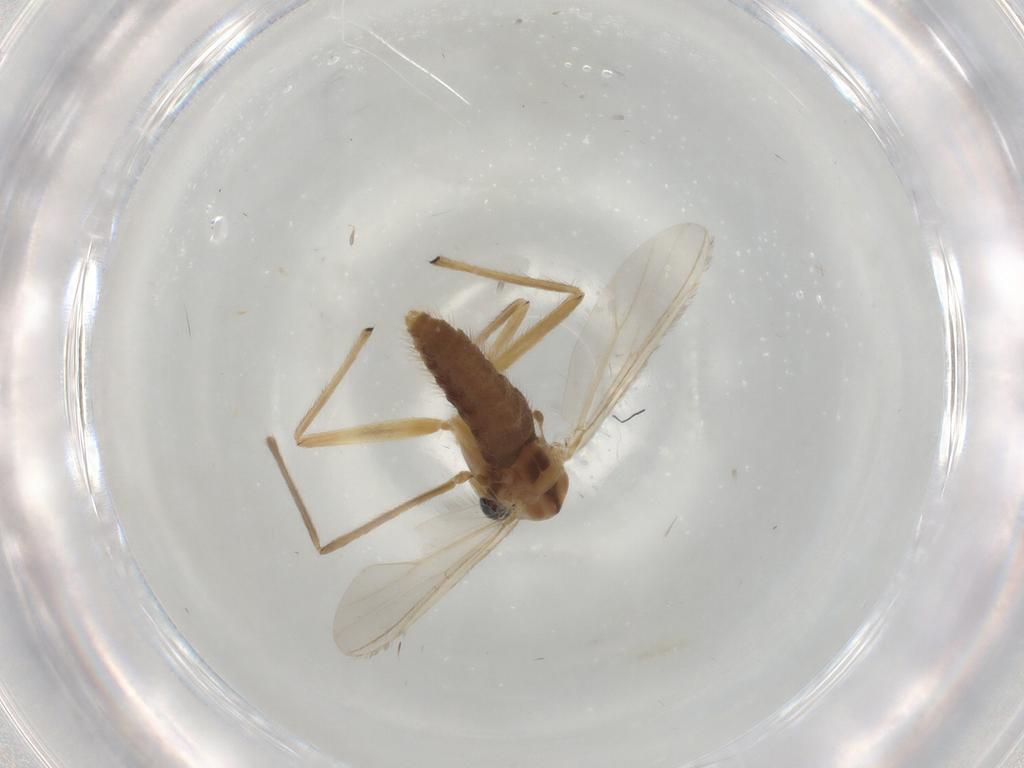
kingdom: Animalia
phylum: Arthropoda
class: Insecta
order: Diptera
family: Chironomidae
